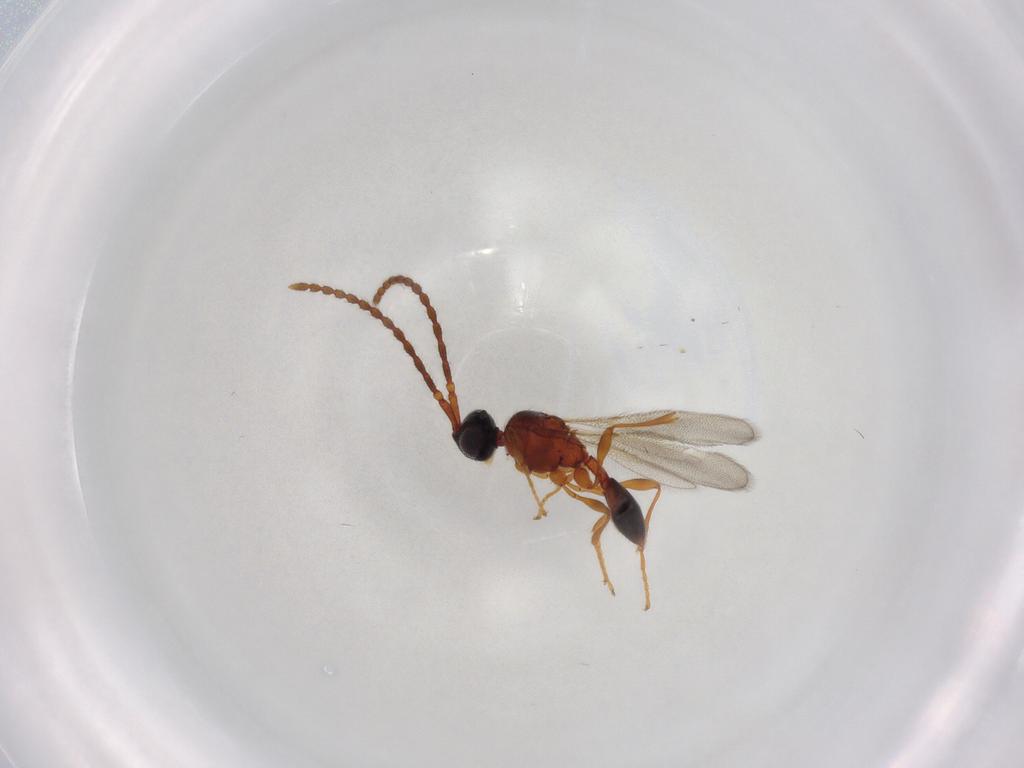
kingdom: Animalia
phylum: Arthropoda
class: Insecta
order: Hymenoptera
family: Diapriidae
